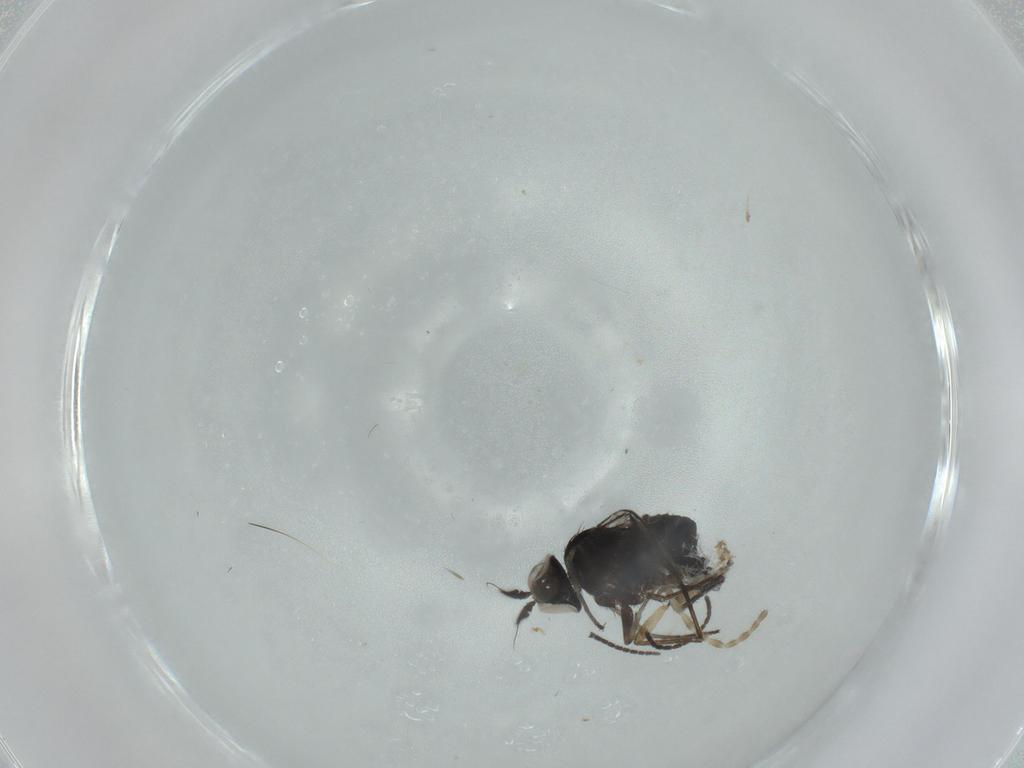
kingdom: Animalia
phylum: Arthropoda
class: Insecta
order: Diptera
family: Dolichopodidae
